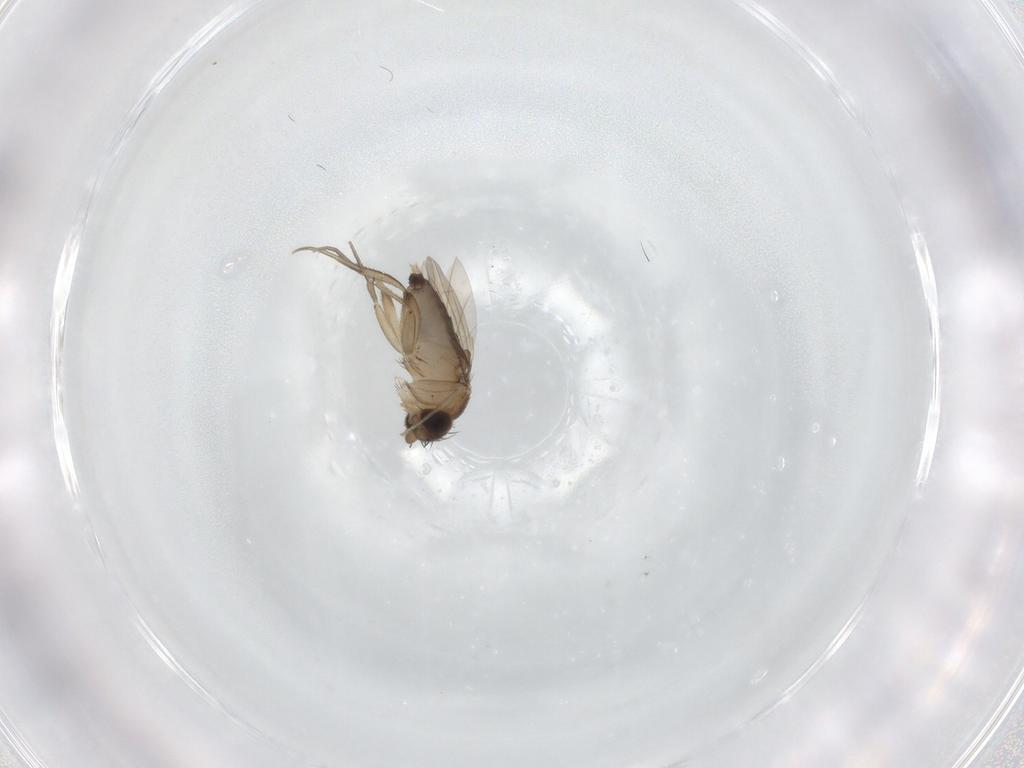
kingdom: Animalia
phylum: Arthropoda
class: Insecta
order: Diptera
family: Phoridae
